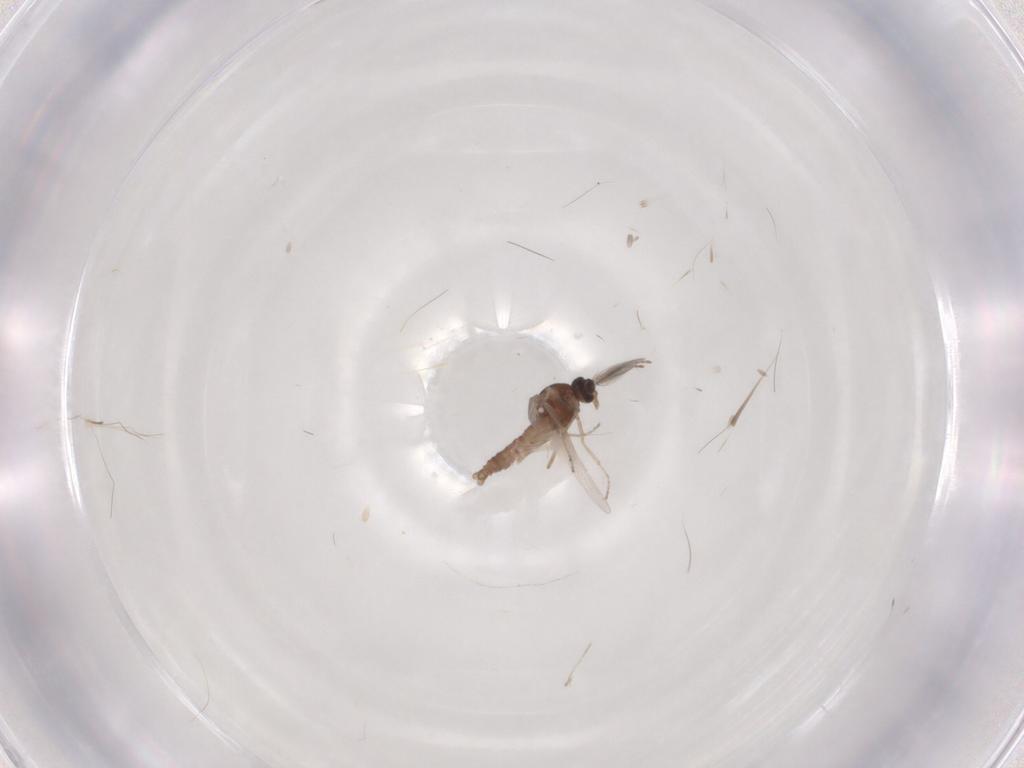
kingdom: Animalia
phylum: Arthropoda
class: Insecta
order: Diptera
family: Ceratopogonidae
